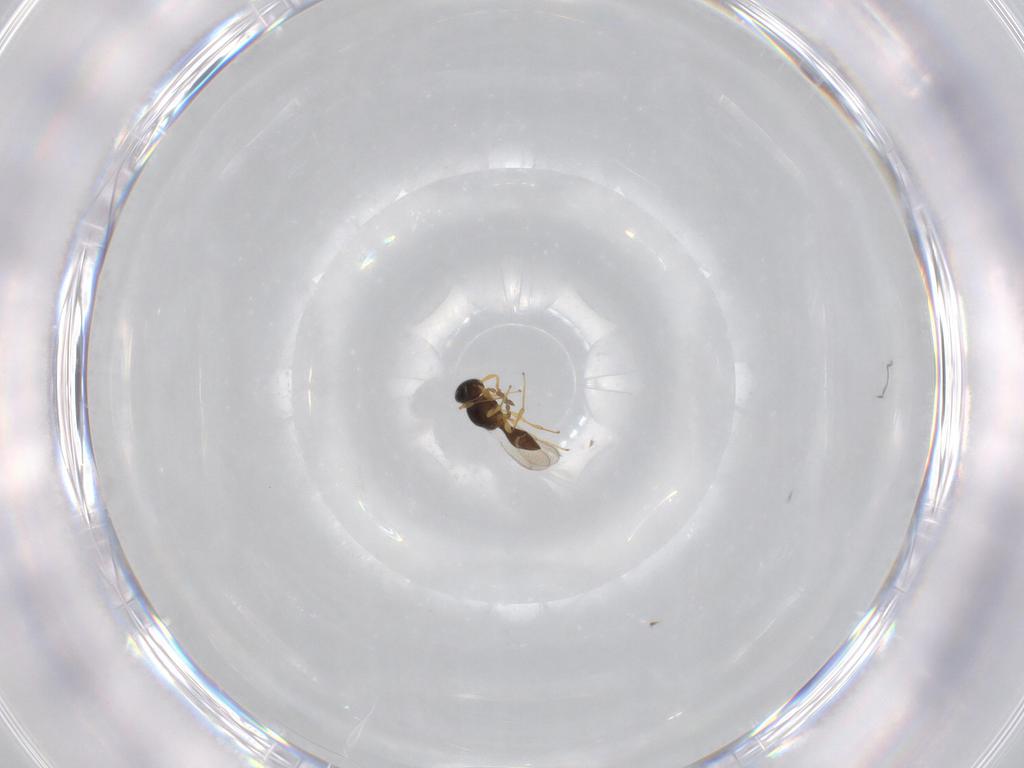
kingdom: Animalia
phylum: Arthropoda
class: Insecta
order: Hymenoptera
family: Platygastridae
